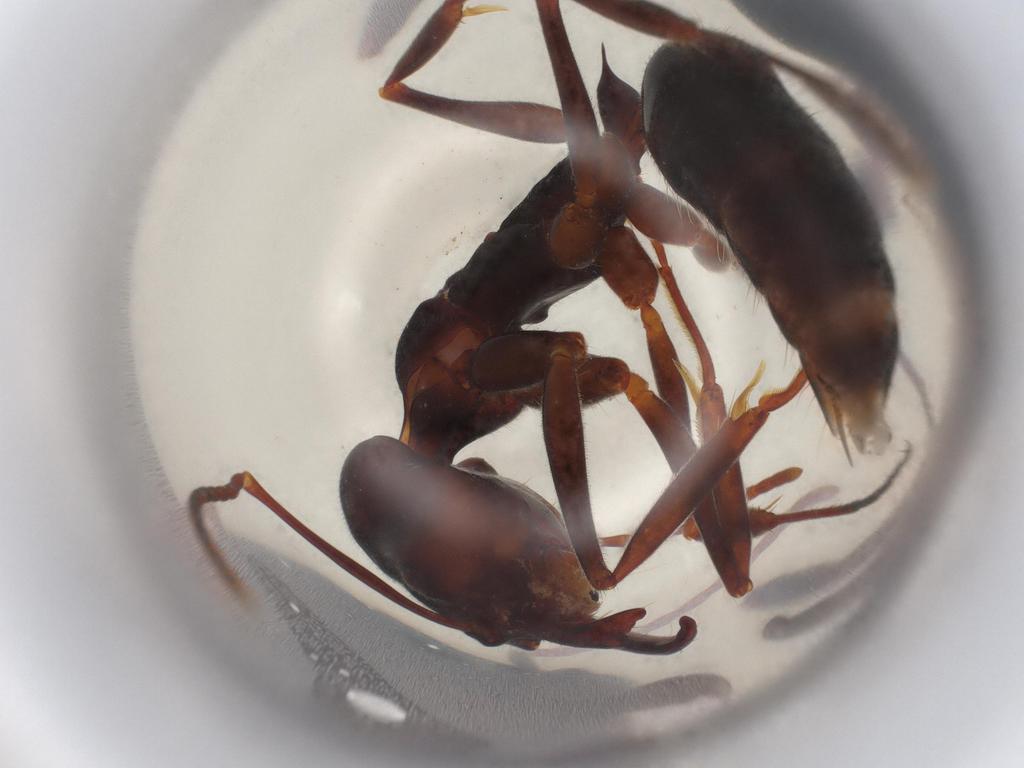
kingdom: Animalia
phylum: Arthropoda
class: Insecta
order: Hymenoptera
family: Formicidae
